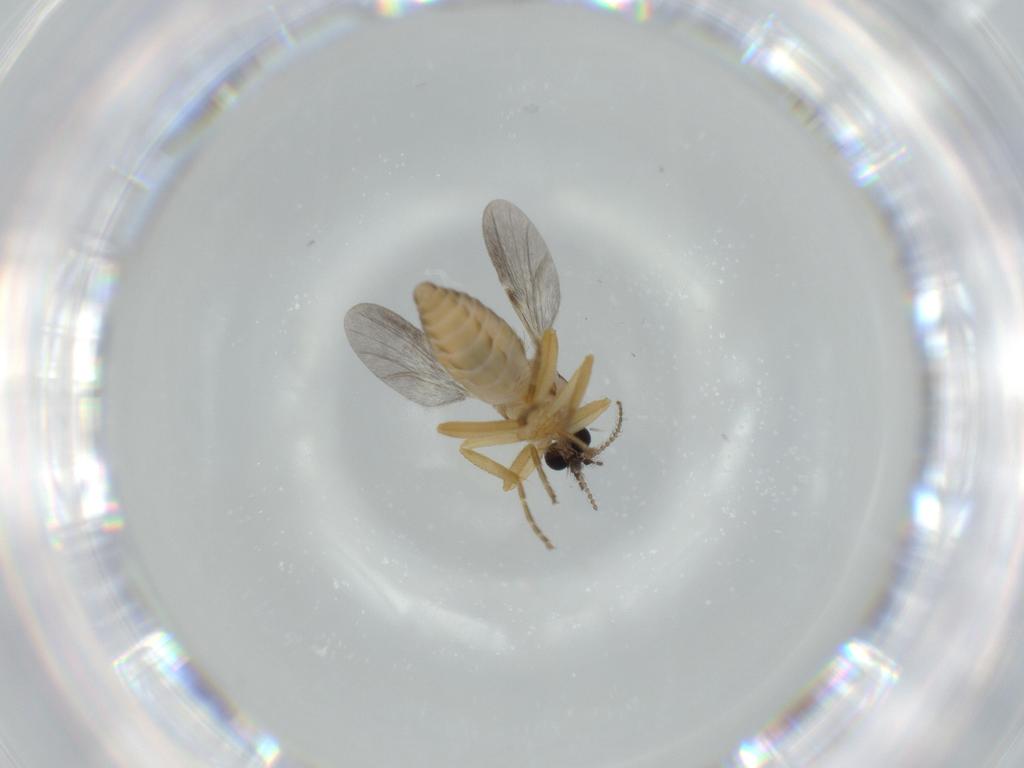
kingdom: Animalia
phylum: Arthropoda
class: Insecta
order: Diptera
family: Ceratopogonidae
